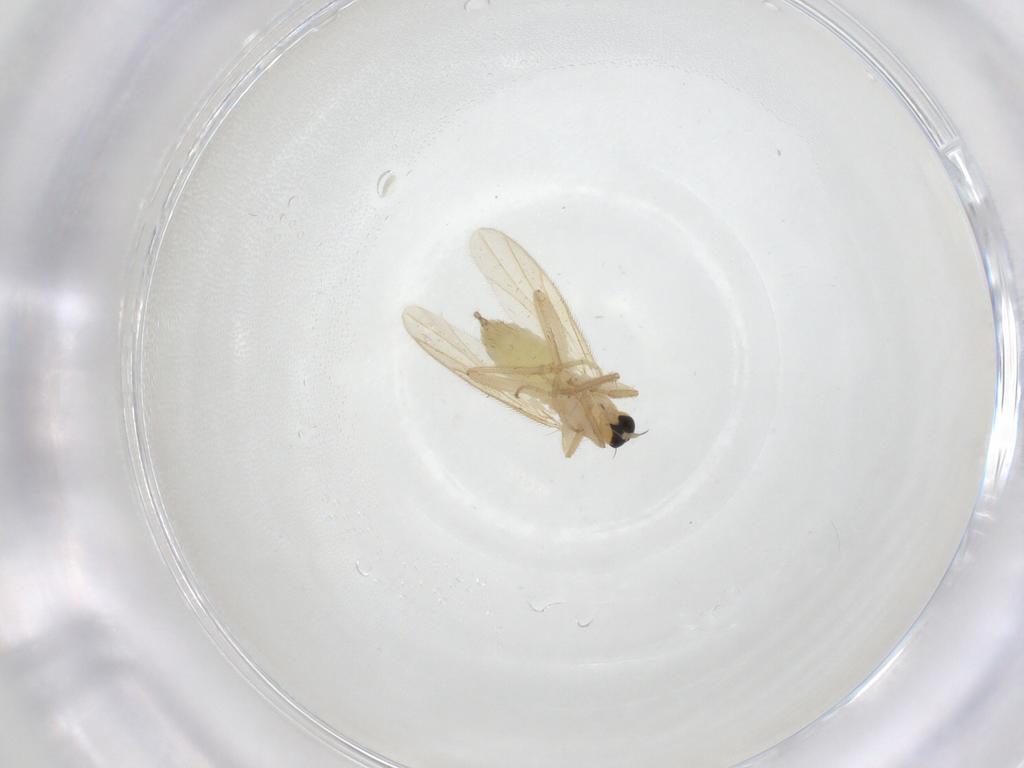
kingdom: Animalia
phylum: Arthropoda
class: Insecta
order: Diptera
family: Hybotidae
